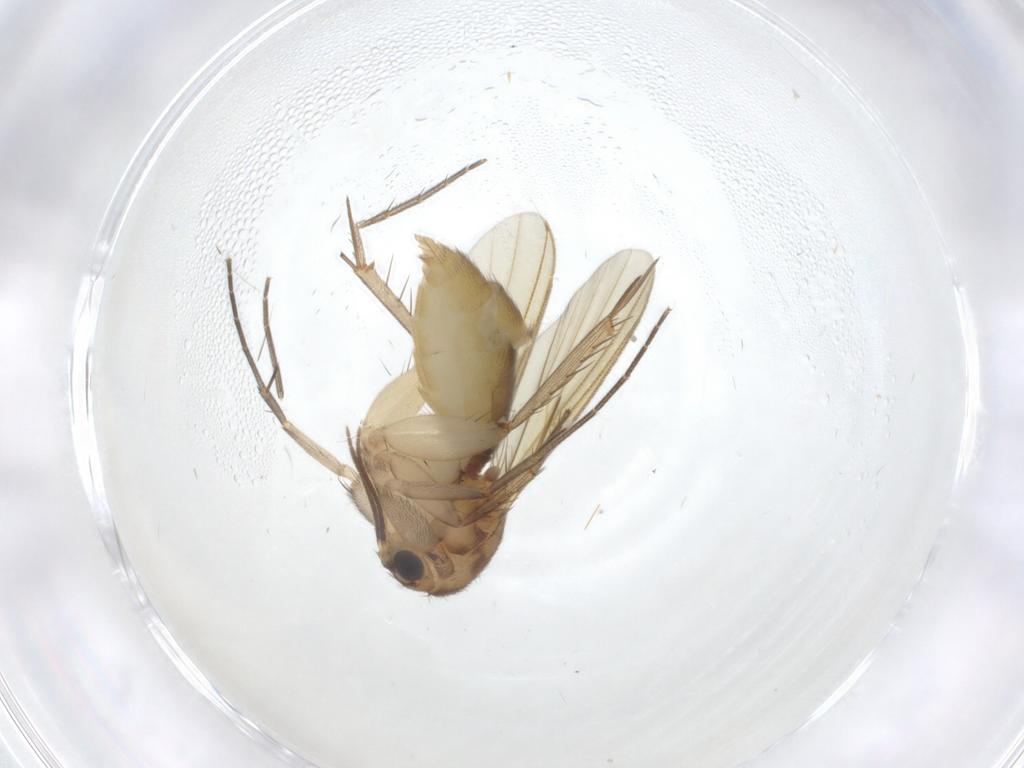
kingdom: Animalia
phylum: Arthropoda
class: Insecta
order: Diptera
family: Mycetophilidae
